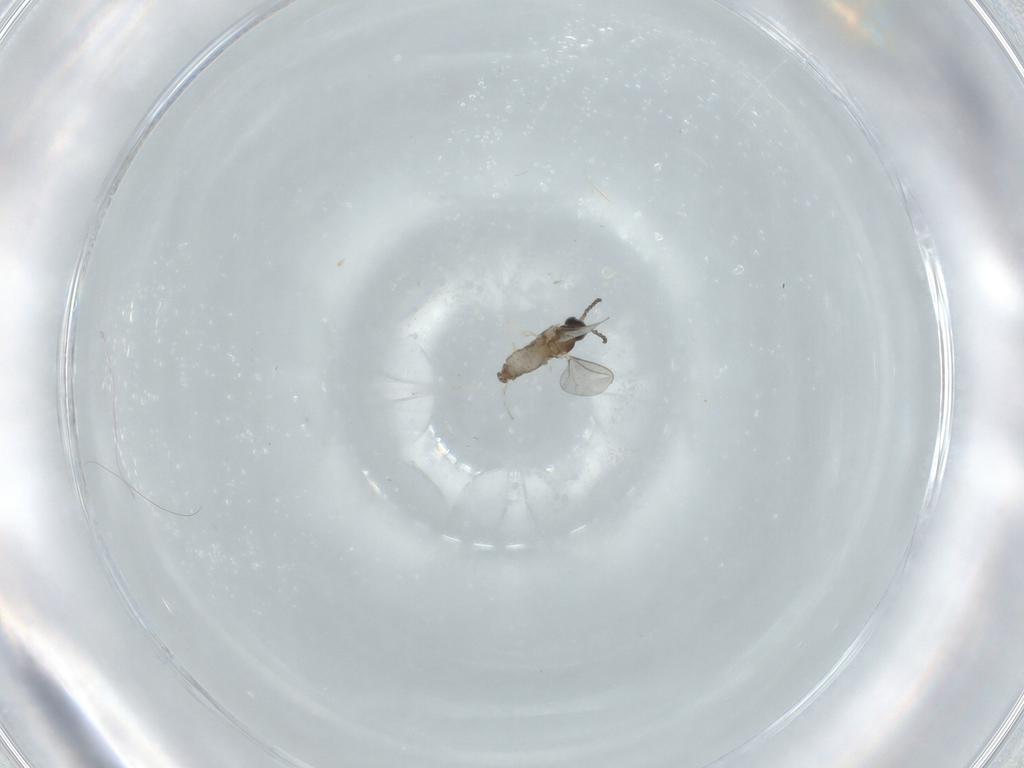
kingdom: Animalia
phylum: Arthropoda
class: Insecta
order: Diptera
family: Cecidomyiidae
